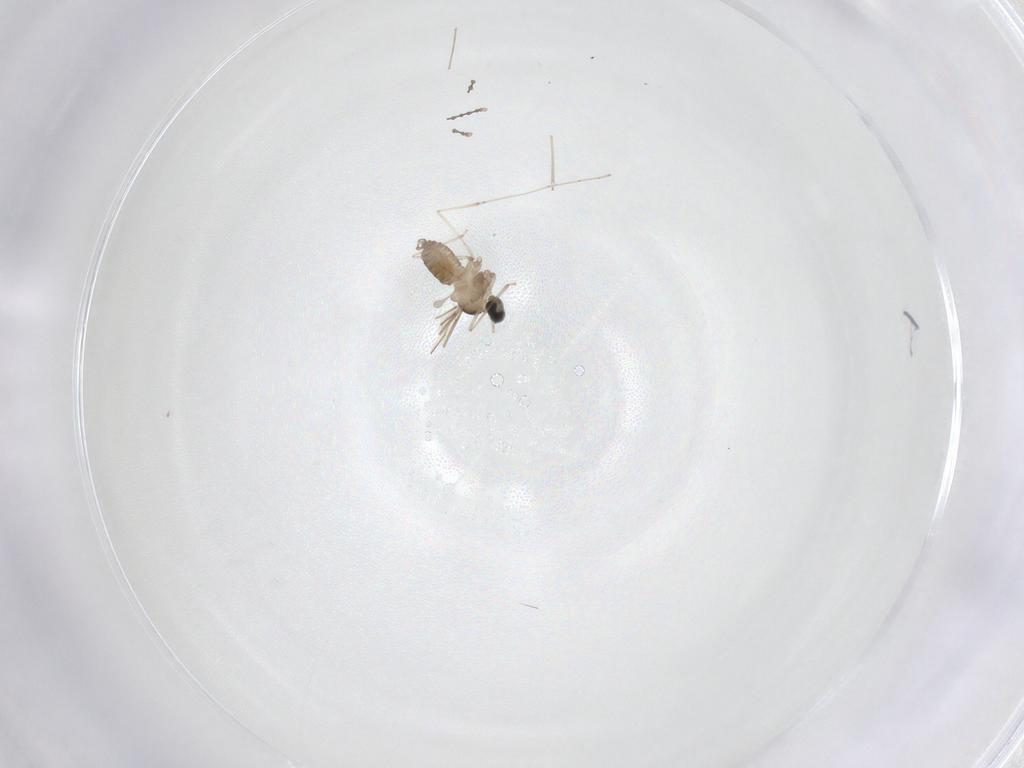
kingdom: Animalia
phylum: Arthropoda
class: Insecta
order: Diptera
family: Cecidomyiidae
